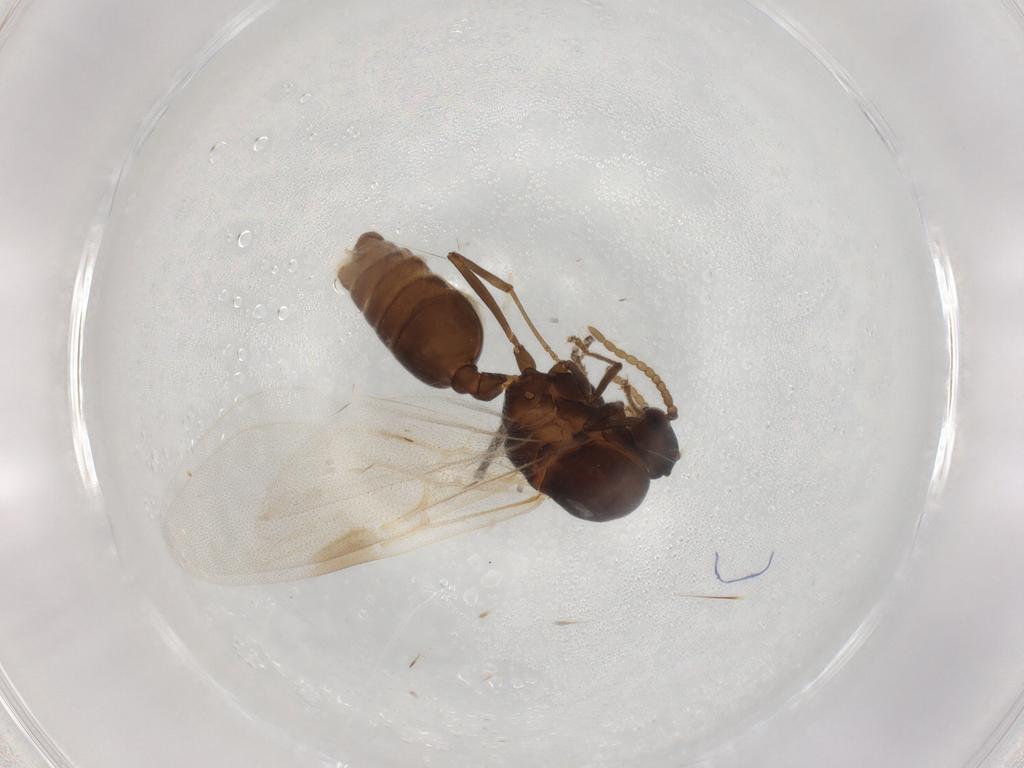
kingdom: Animalia
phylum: Arthropoda
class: Insecta
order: Hymenoptera
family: Formicidae
